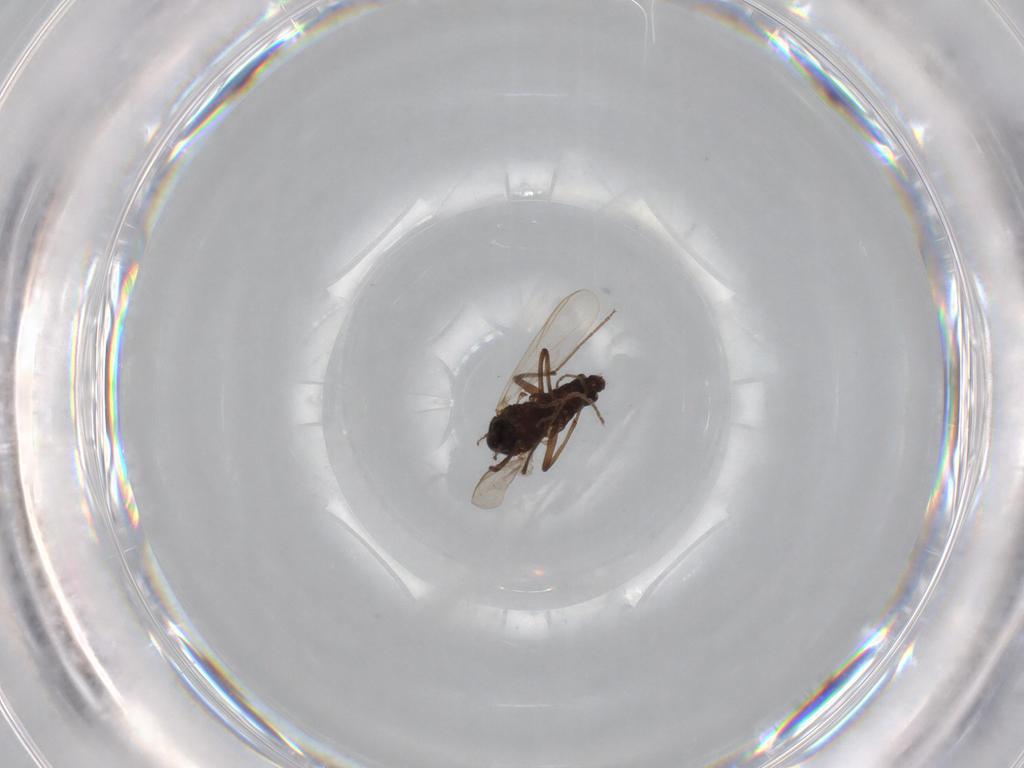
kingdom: Animalia
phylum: Arthropoda
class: Insecta
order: Diptera
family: Chironomidae
